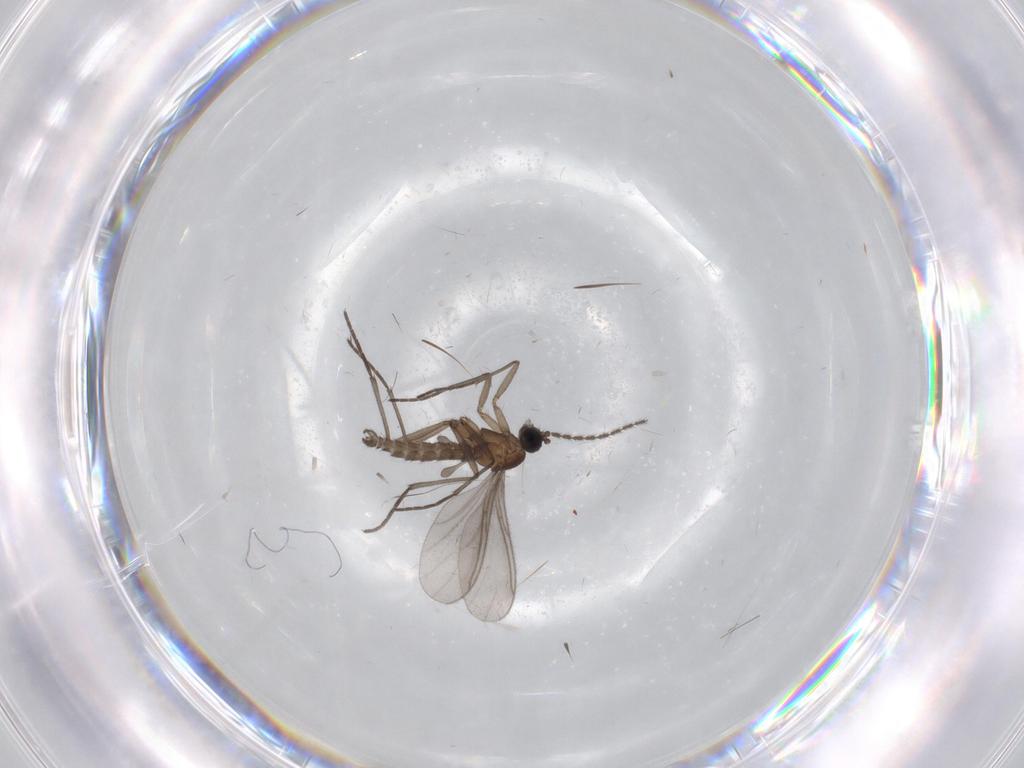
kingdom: Animalia
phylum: Arthropoda
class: Insecta
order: Diptera
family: Sciaridae
